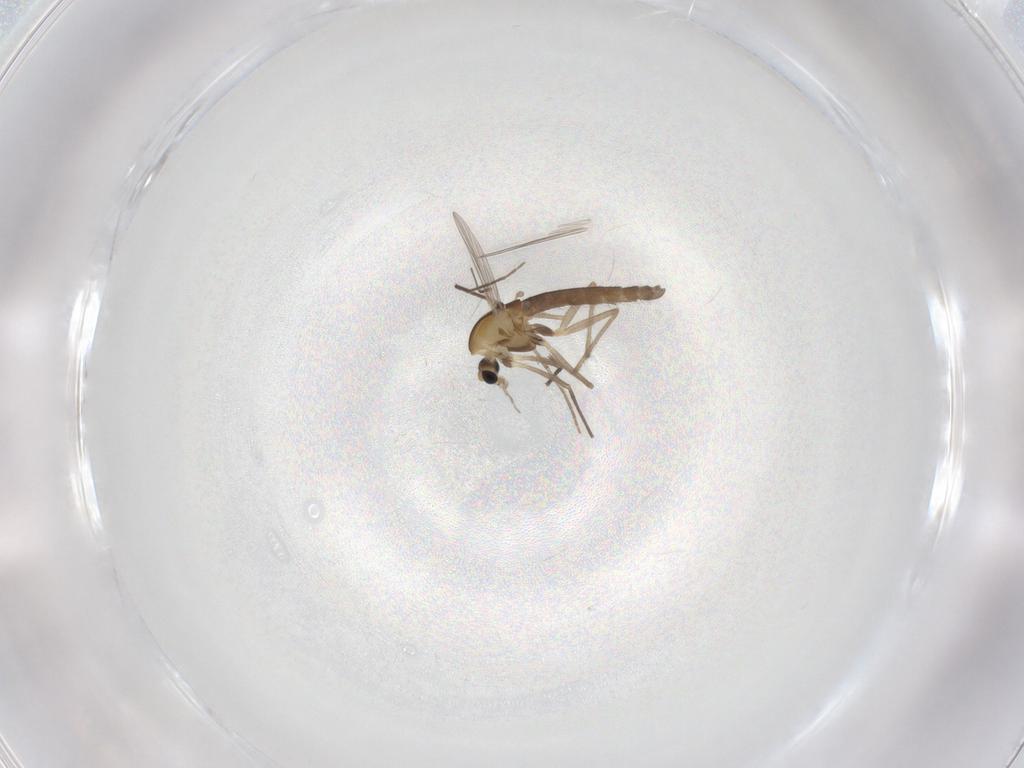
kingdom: Animalia
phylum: Arthropoda
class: Insecta
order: Diptera
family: Chironomidae
